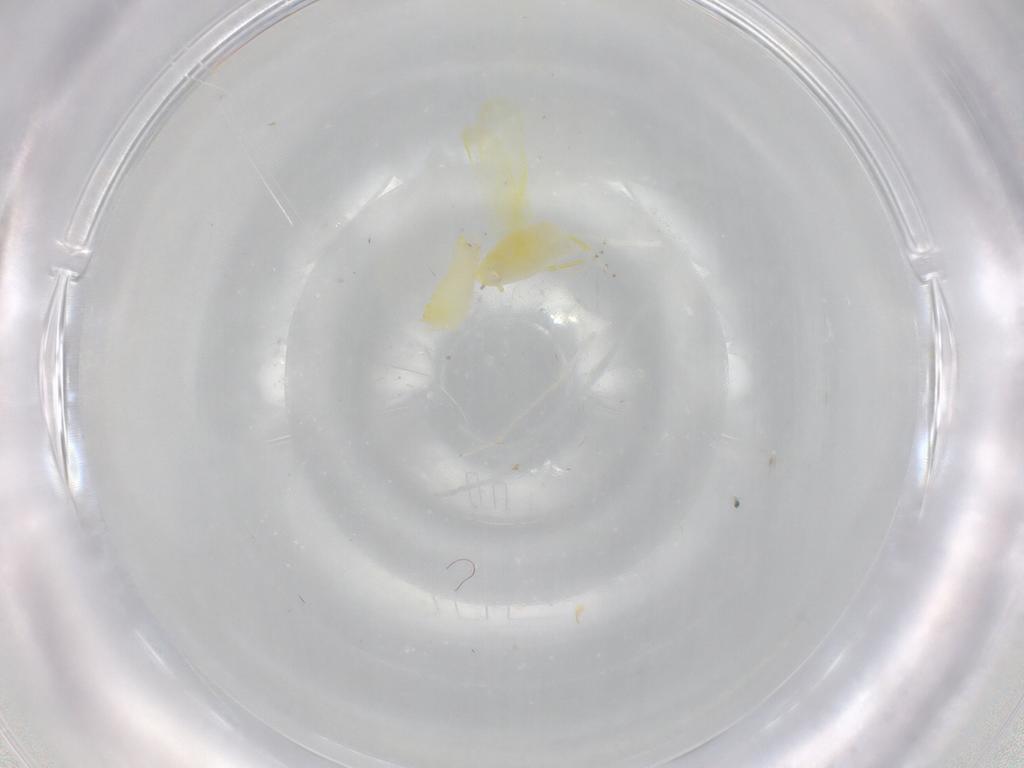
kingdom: Animalia
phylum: Arthropoda
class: Insecta
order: Hemiptera
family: Cicadellidae
